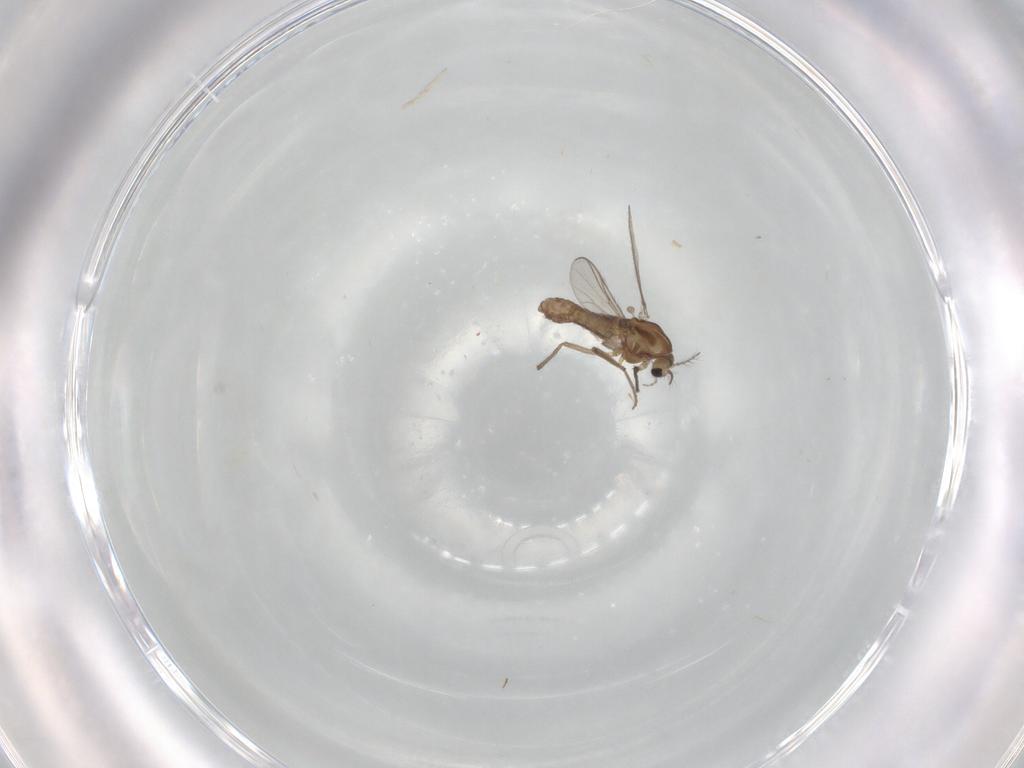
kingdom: Animalia
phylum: Arthropoda
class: Insecta
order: Diptera
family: Chironomidae
